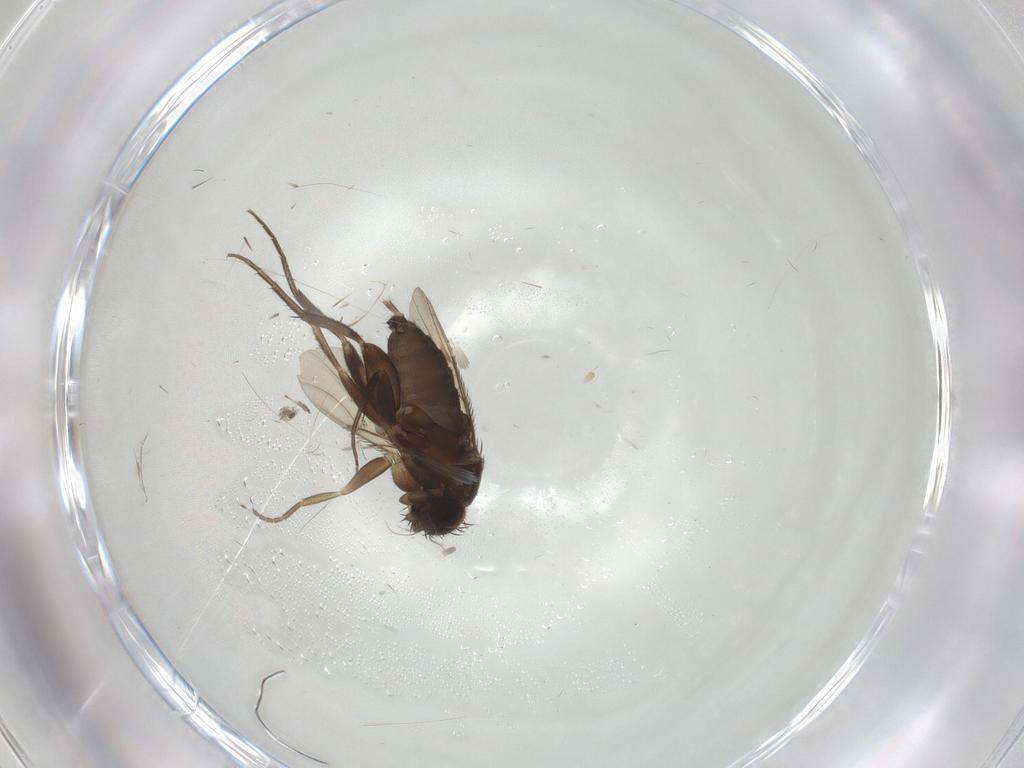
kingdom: Animalia
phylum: Arthropoda
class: Insecta
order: Diptera
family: Phoridae
